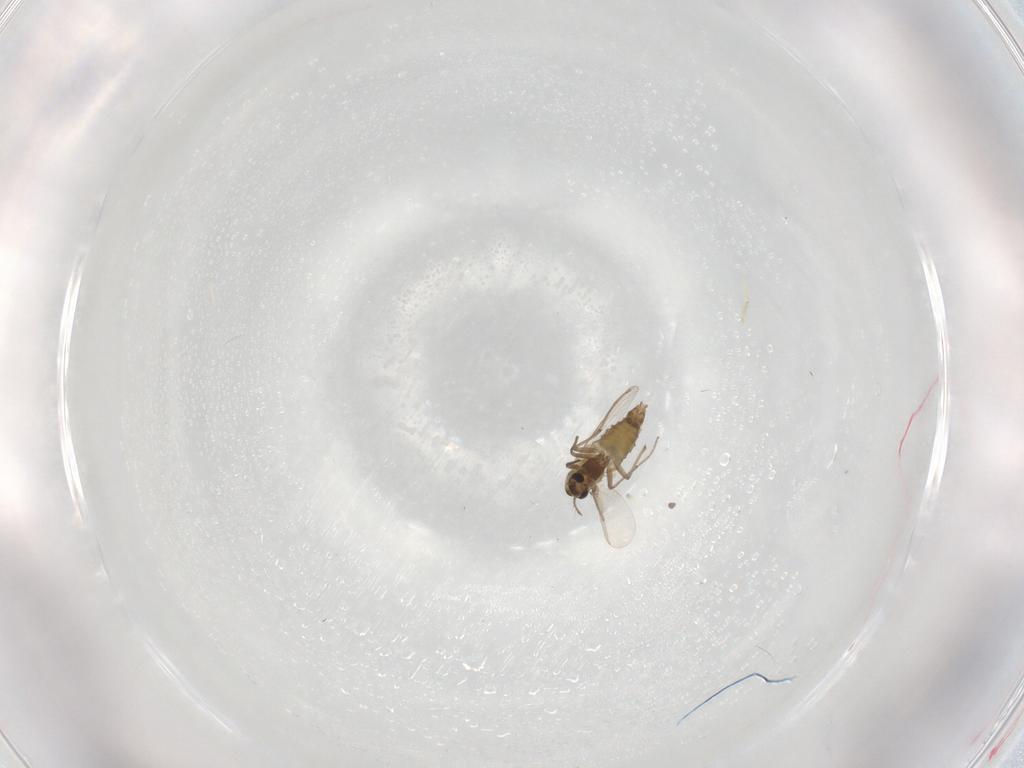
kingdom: Animalia
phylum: Arthropoda
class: Insecta
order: Diptera
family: Chironomidae
